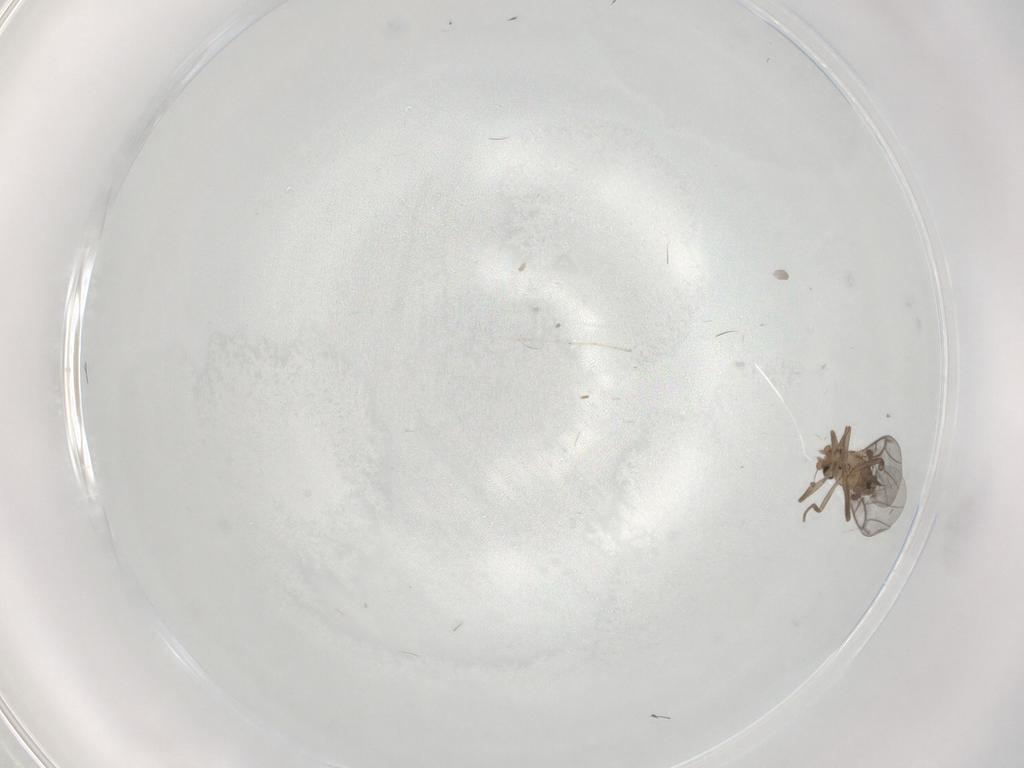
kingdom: Animalia
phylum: Arthropoda
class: Insecta
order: Diptera
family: Cecidomyiidae
